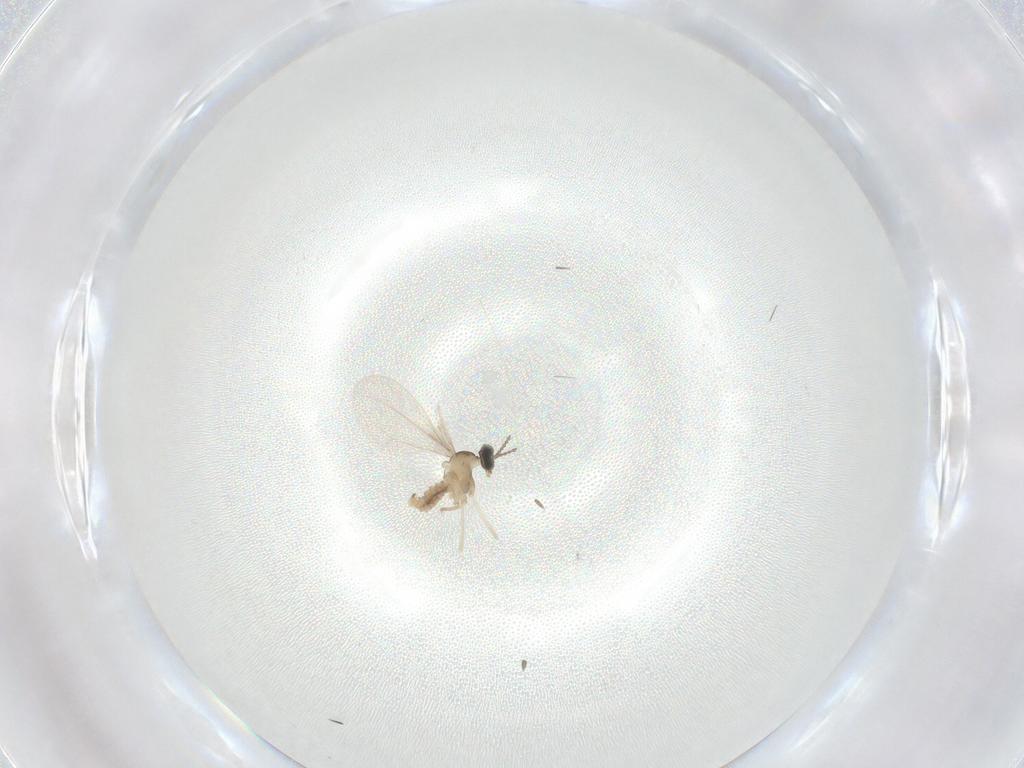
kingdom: Animalia
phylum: Arthropoda
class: Insecta
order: Diptera
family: Cecidomyiidae
